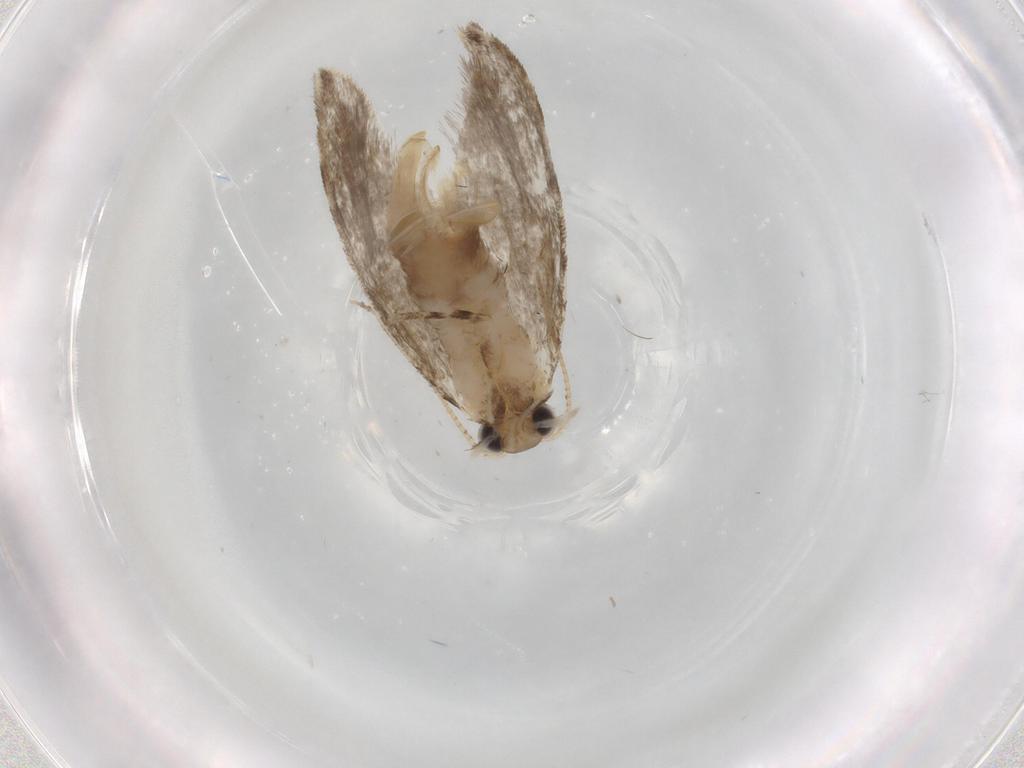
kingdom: Animalia
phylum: Arthropoda
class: Insecta
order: Lepidoptera
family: Tineidae
